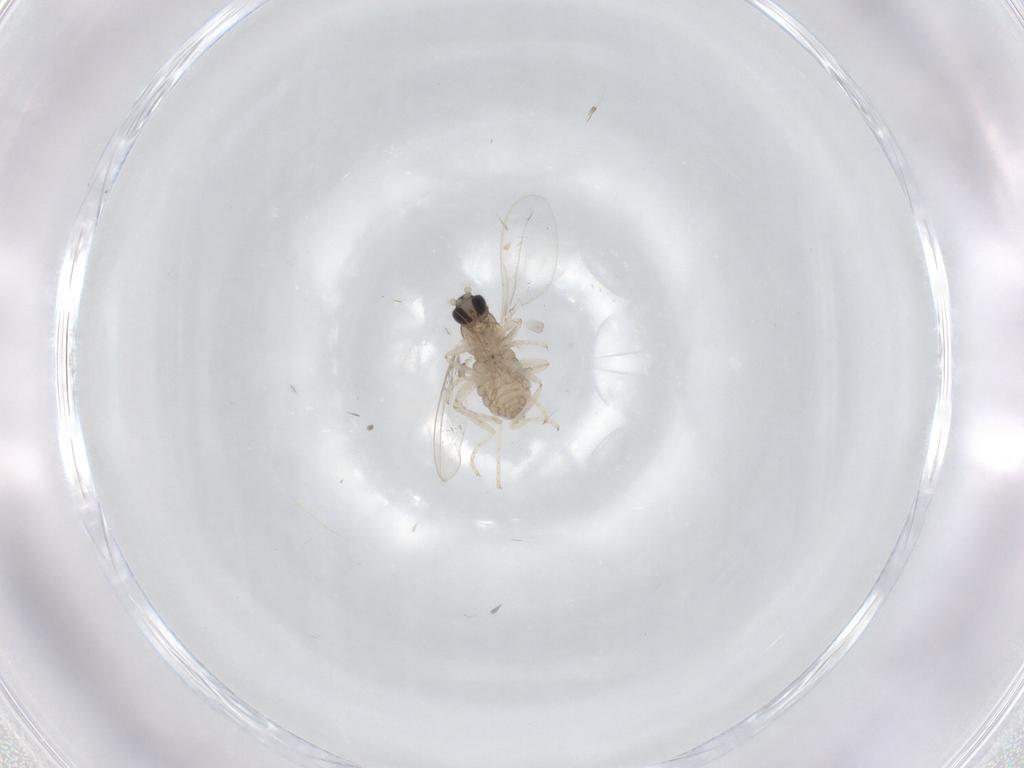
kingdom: Animalia
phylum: Arthropoda
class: Insecta
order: Diptera
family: Cecidomyiidae
